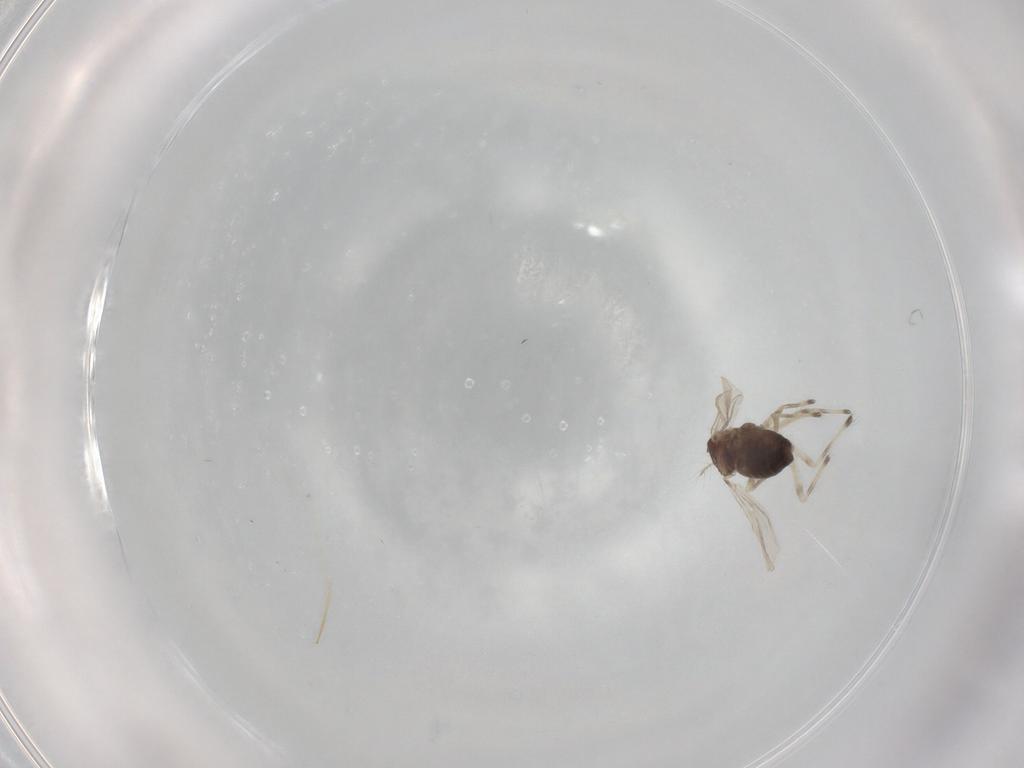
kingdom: Animalia
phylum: Arthropoda
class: Insecta
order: Diptera
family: Chironomidae
